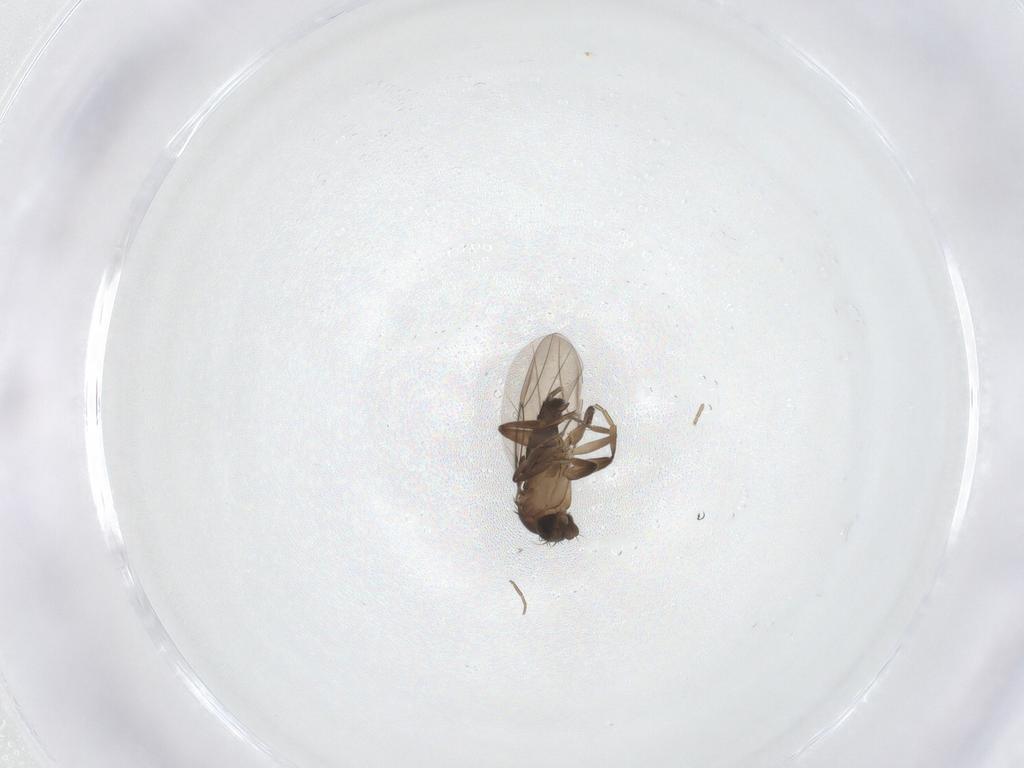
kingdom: Animalia
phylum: Arthropoda
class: Insecta
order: Diptera
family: Phoridae
